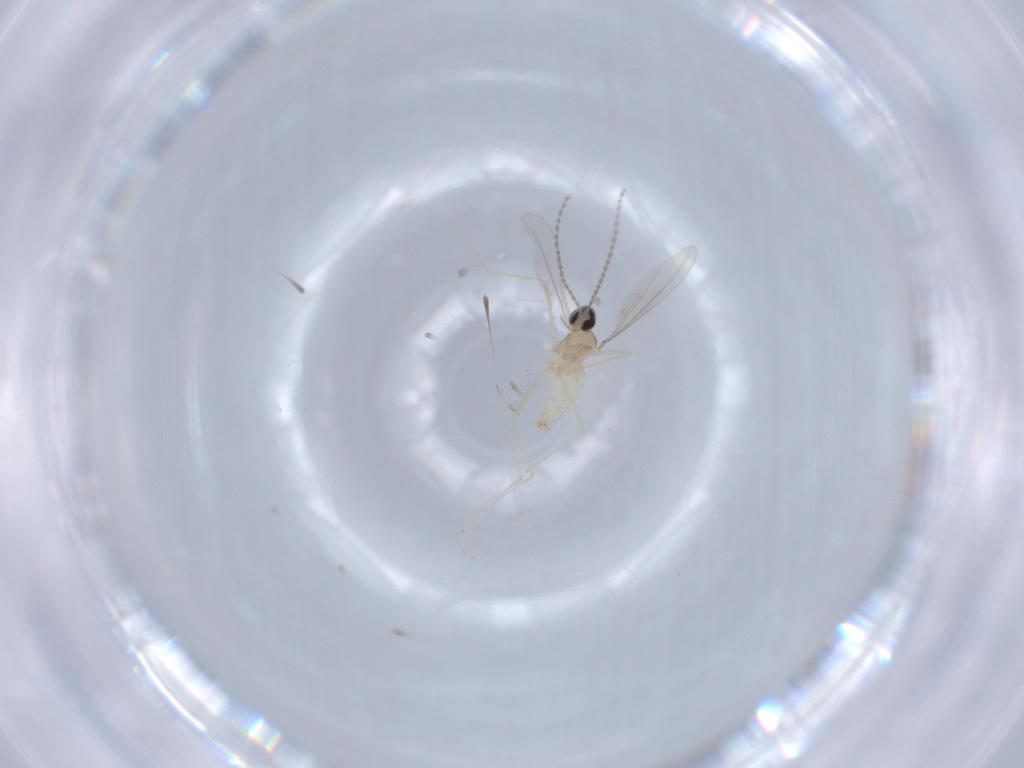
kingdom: Animalia
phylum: Arthropoda
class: Insecta
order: Diptera
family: Cecidomyiidae
